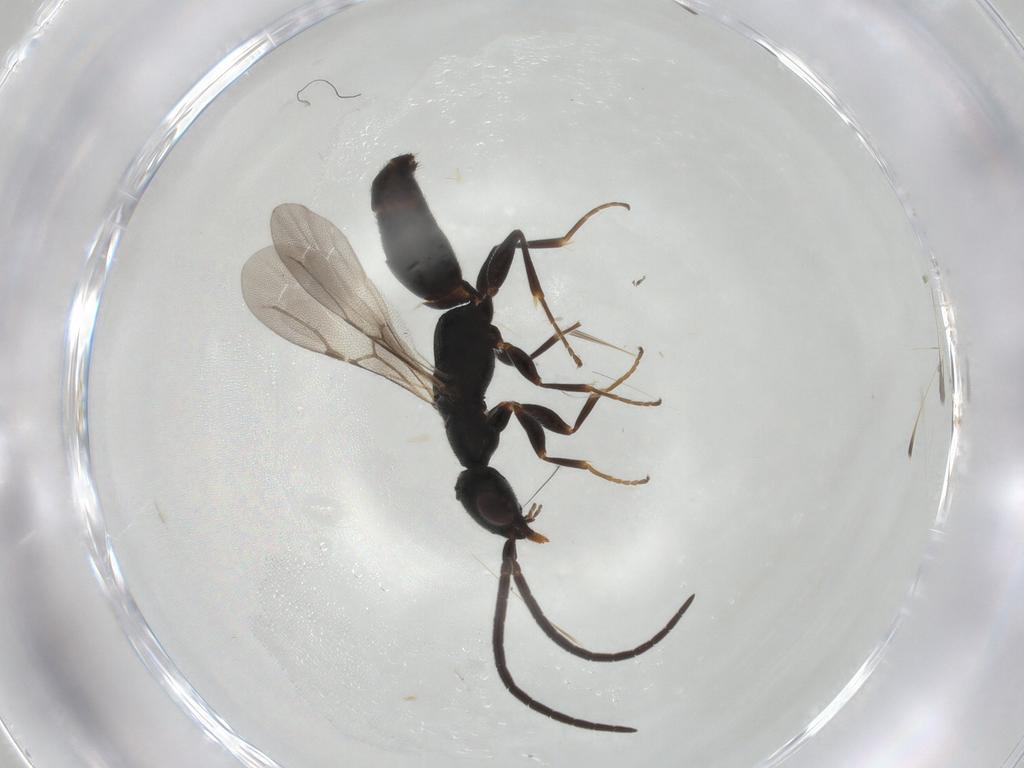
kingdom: Animalia
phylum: Arthropoda
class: Insecta
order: Hymenoptera
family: Bethylidae
